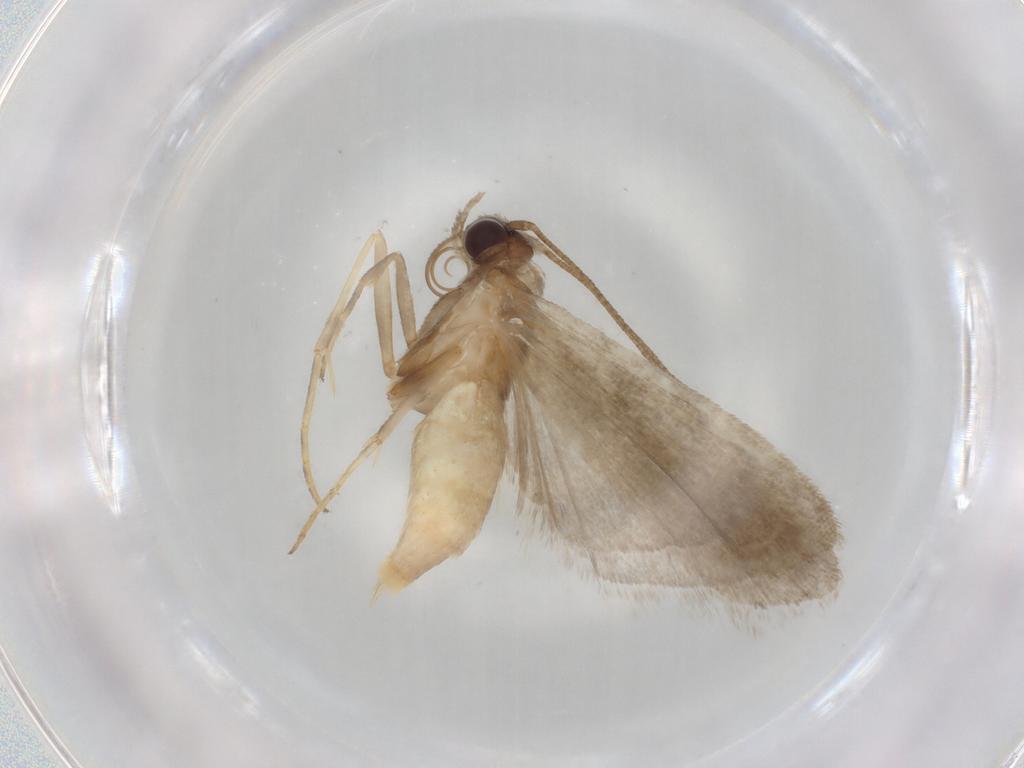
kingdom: Animalia
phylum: Arthropoda
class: Insecta
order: Lepidoptera
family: Noctuidae
